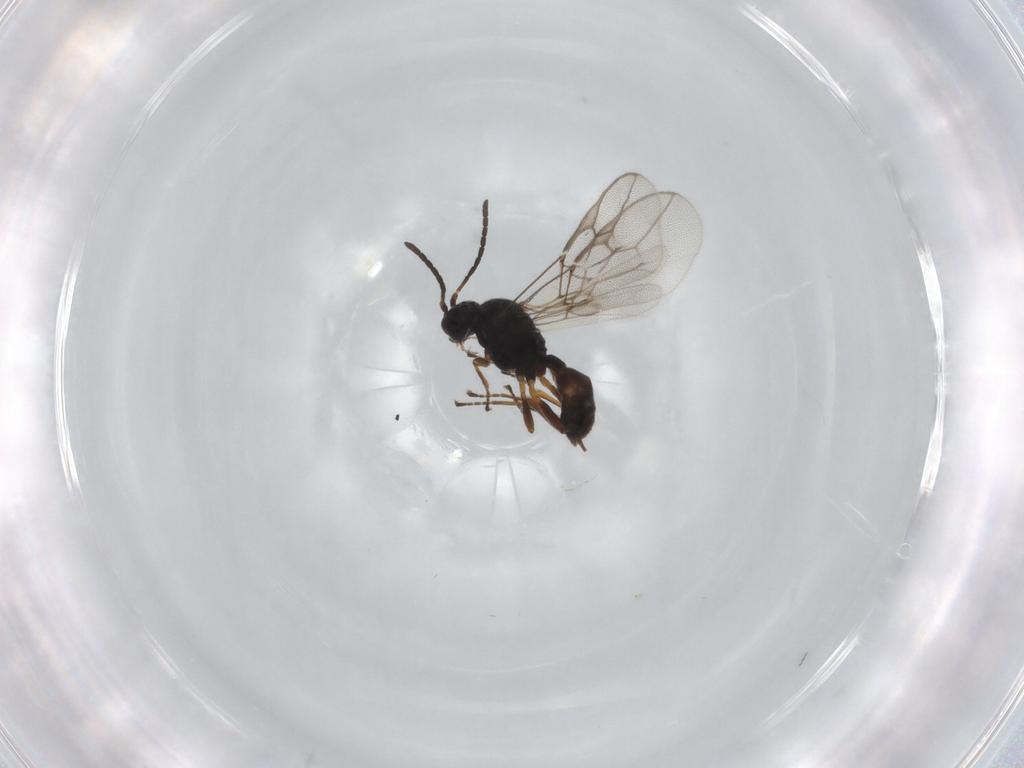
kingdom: Animalia
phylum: Arthropoda
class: Insecta
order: Hymenoptera
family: Braconidae
